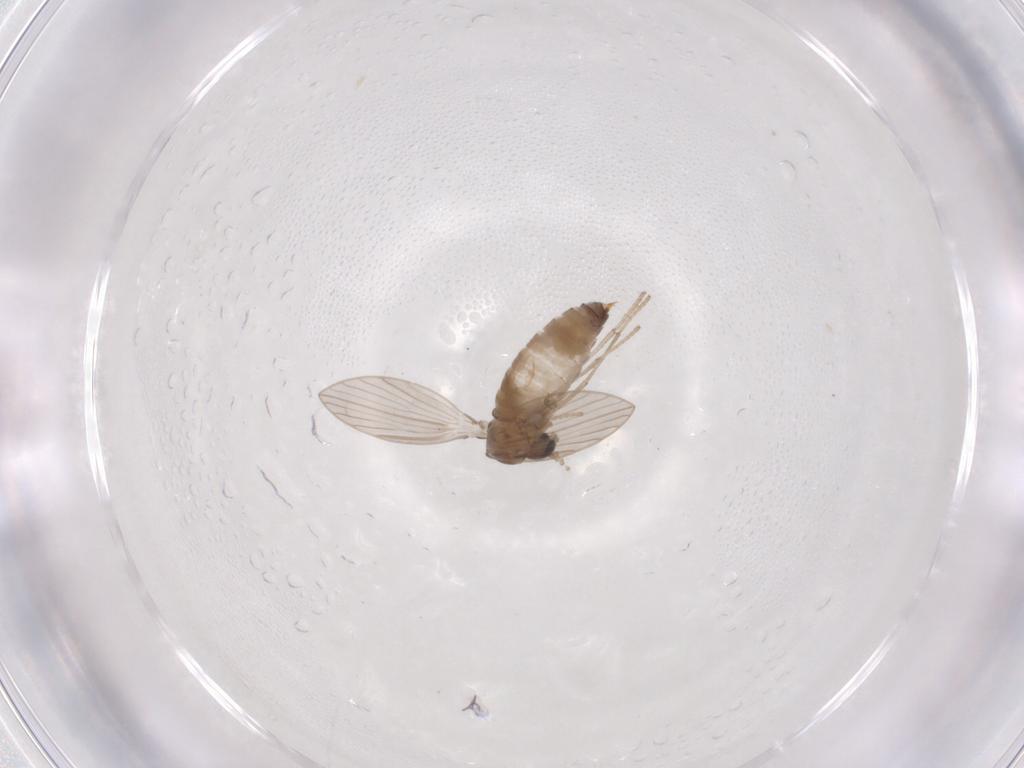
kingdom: Animalia
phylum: Arthropoda
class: Insecta
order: Diptera
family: Psychodidae
